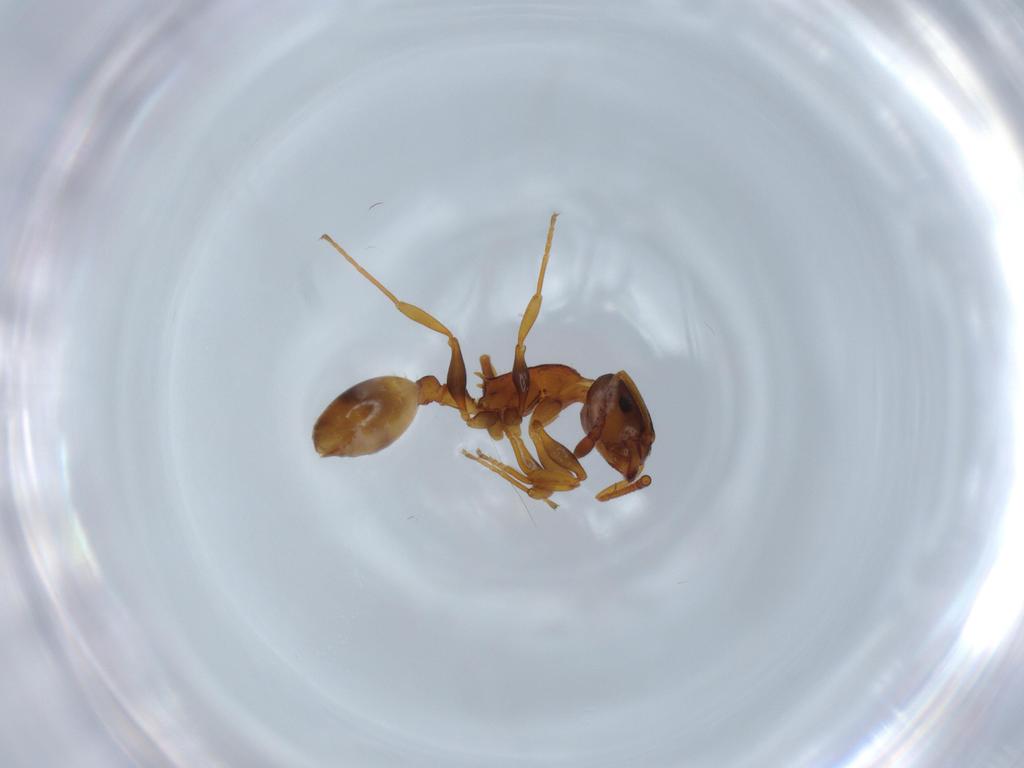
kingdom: Animalia
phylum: Arthropoda
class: Insecta
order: Hymenoptera
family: Formicidae
